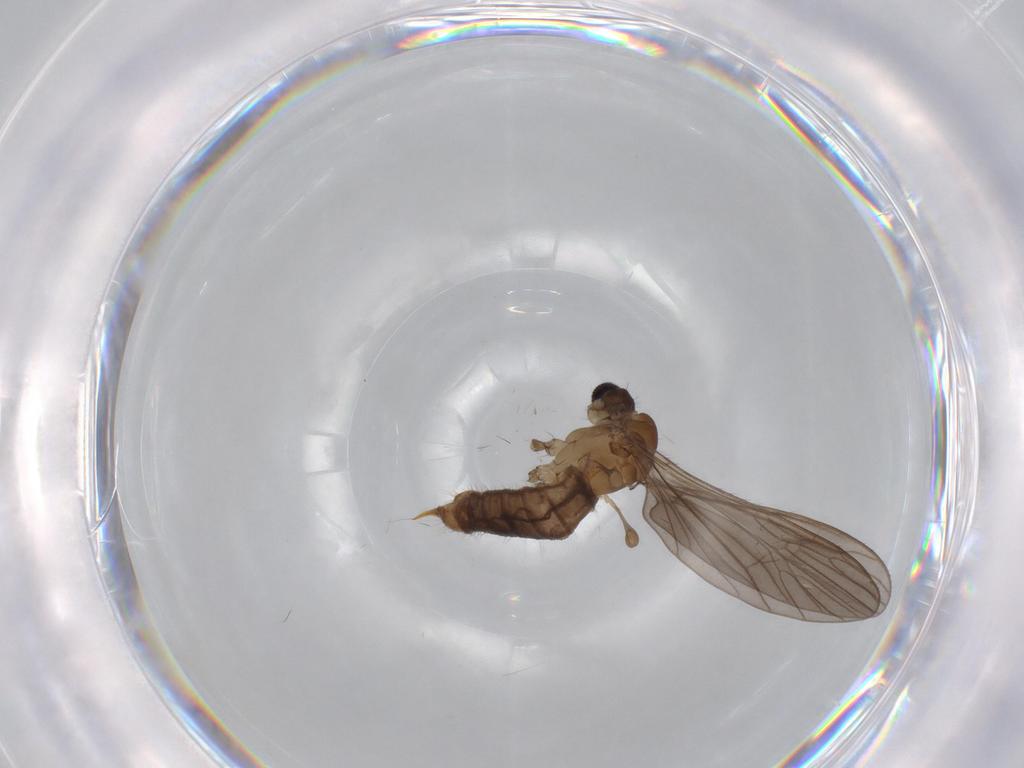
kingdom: Animalia
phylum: Arthropoda
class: Insecta
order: Diptera
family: Limoniidae
